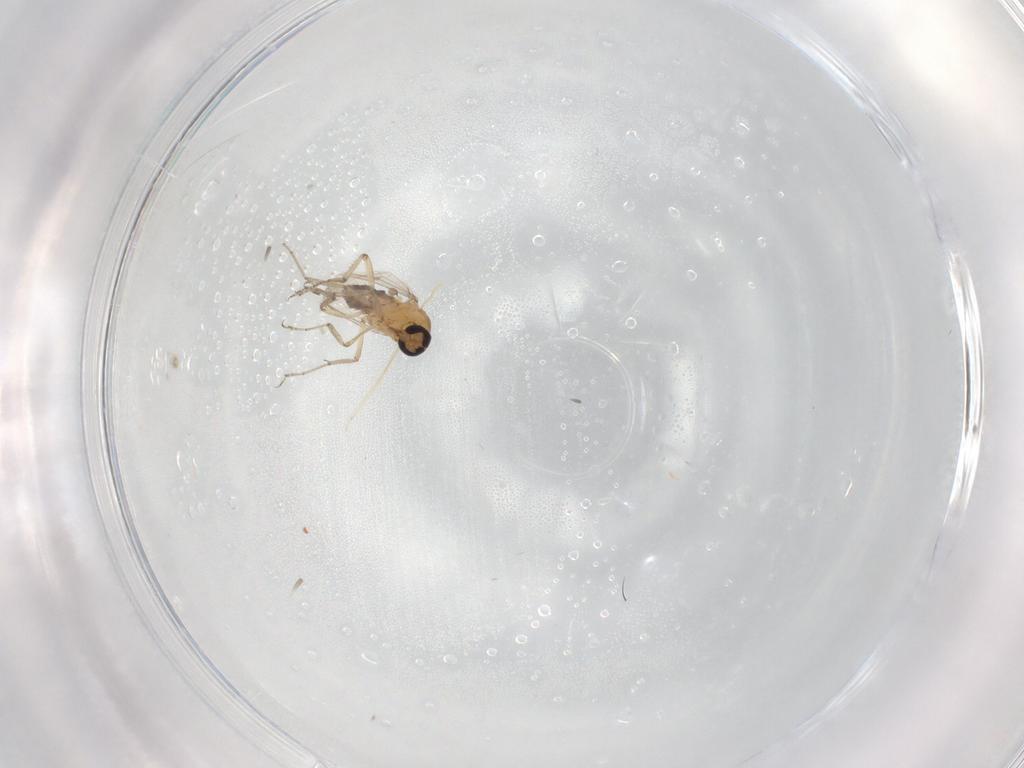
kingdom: Animalia
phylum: Arthropoda
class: Insecta
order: Diptera
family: Ceratopogonidae
